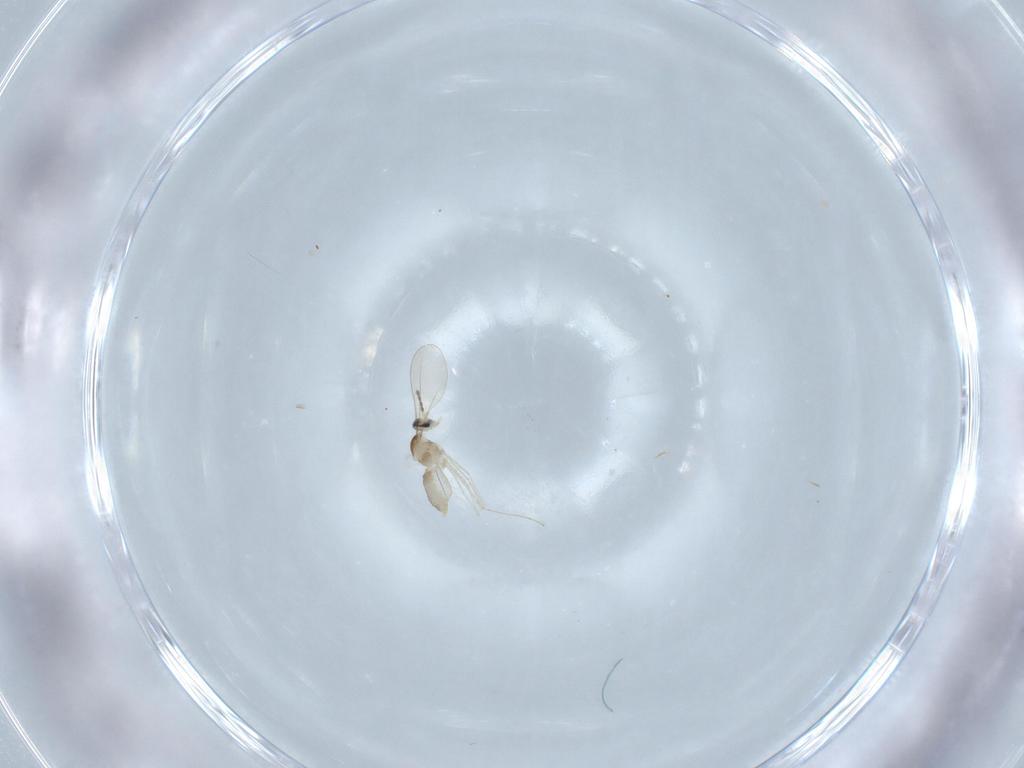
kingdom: Animalia
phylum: Arthropoda
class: Insecta
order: Diptera
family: Chironomidae
